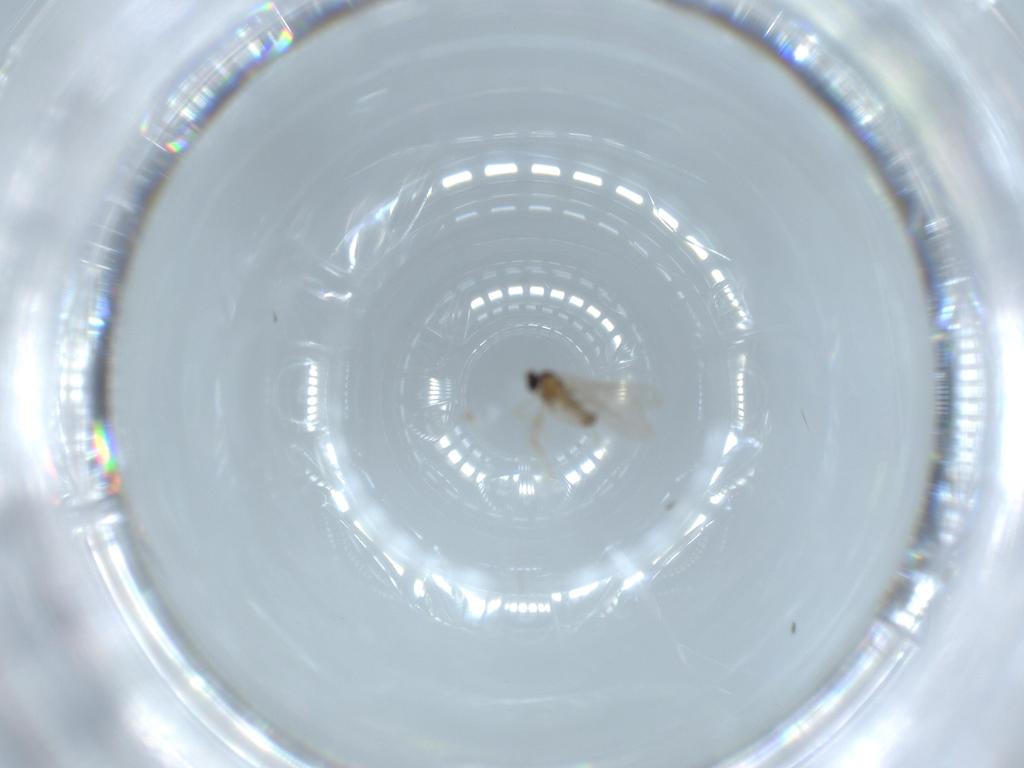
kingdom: Animalia
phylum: Arthropoda
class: Insecta
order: Diptera
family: Cecidomyiidae
